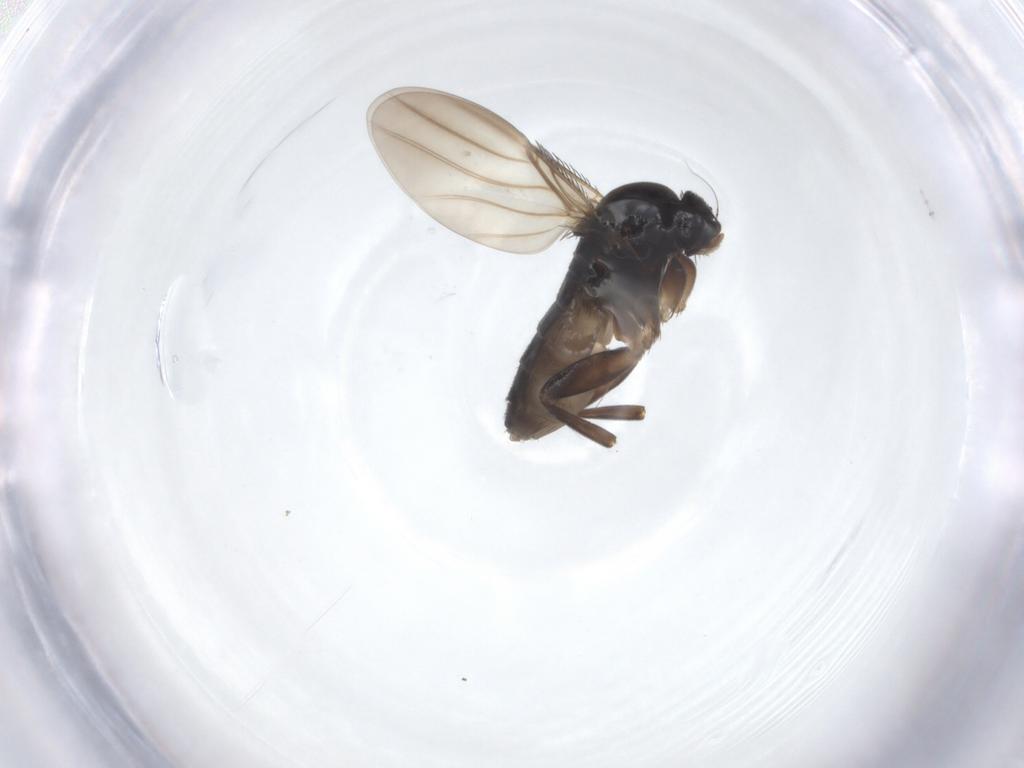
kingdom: Animalia
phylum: Arthropoda
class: Insecta
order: Diptera
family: Phoridae
